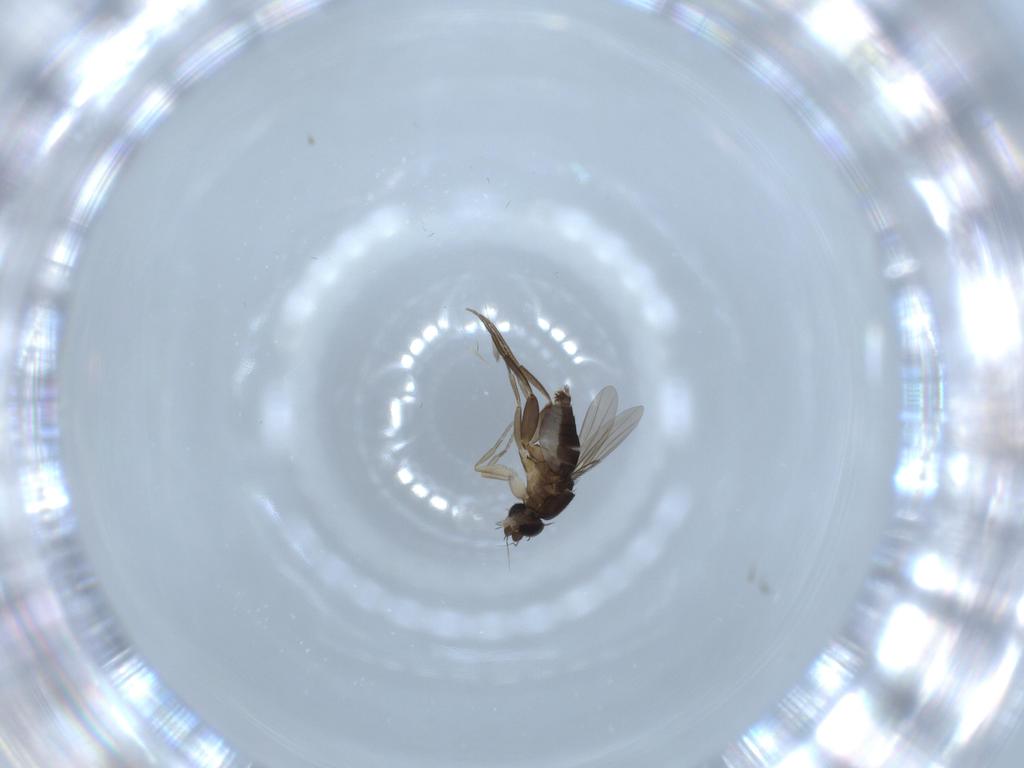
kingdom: Animalia
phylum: Arthropoda
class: Insecta
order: Diptera
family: Phoridae
